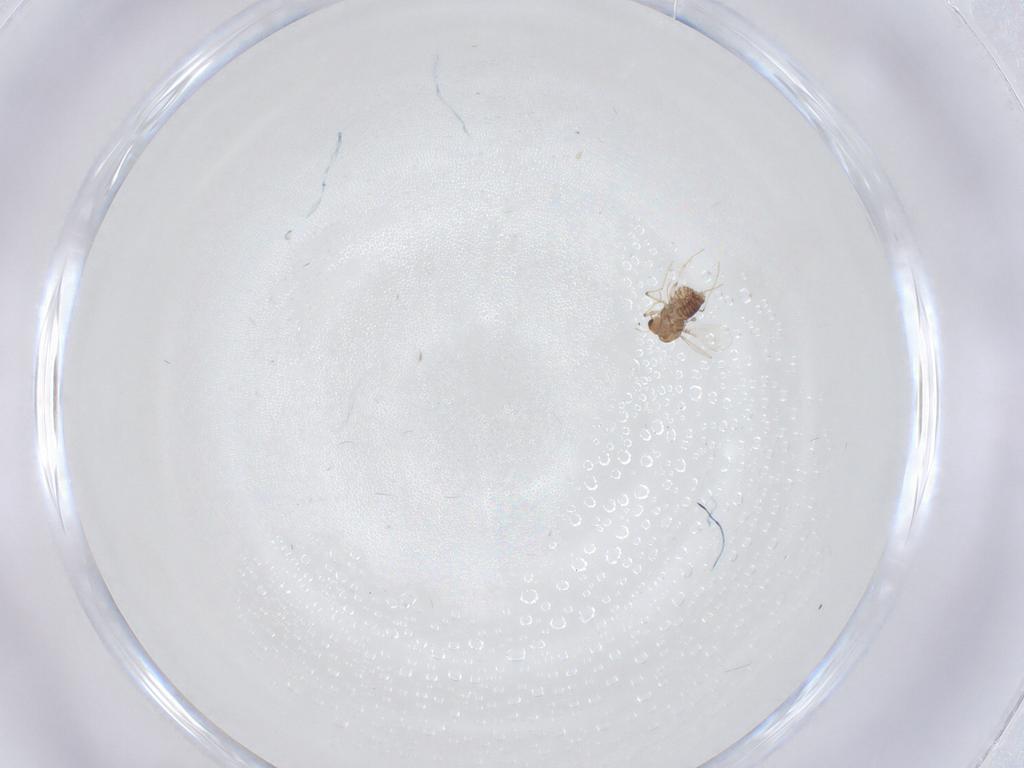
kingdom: Animalia
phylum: Arthropoda
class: Insecta
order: Diptera
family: Chironomidae
